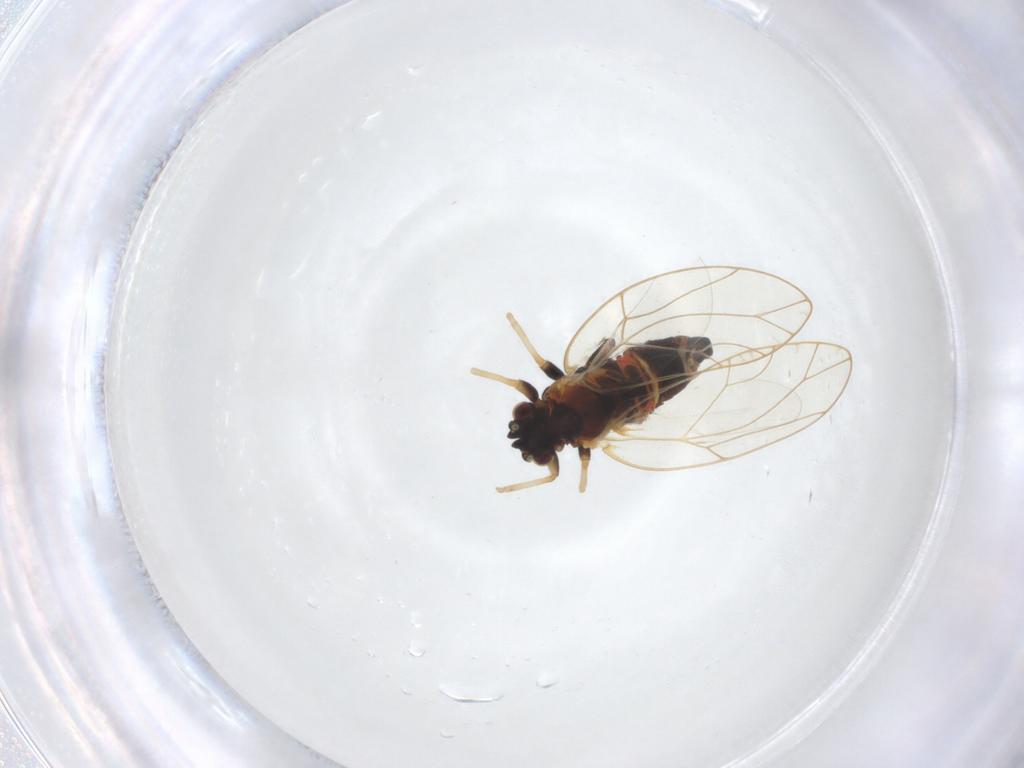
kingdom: Animalia
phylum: Arthropoda
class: Insecta
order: Hemiptera
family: Triozidae
